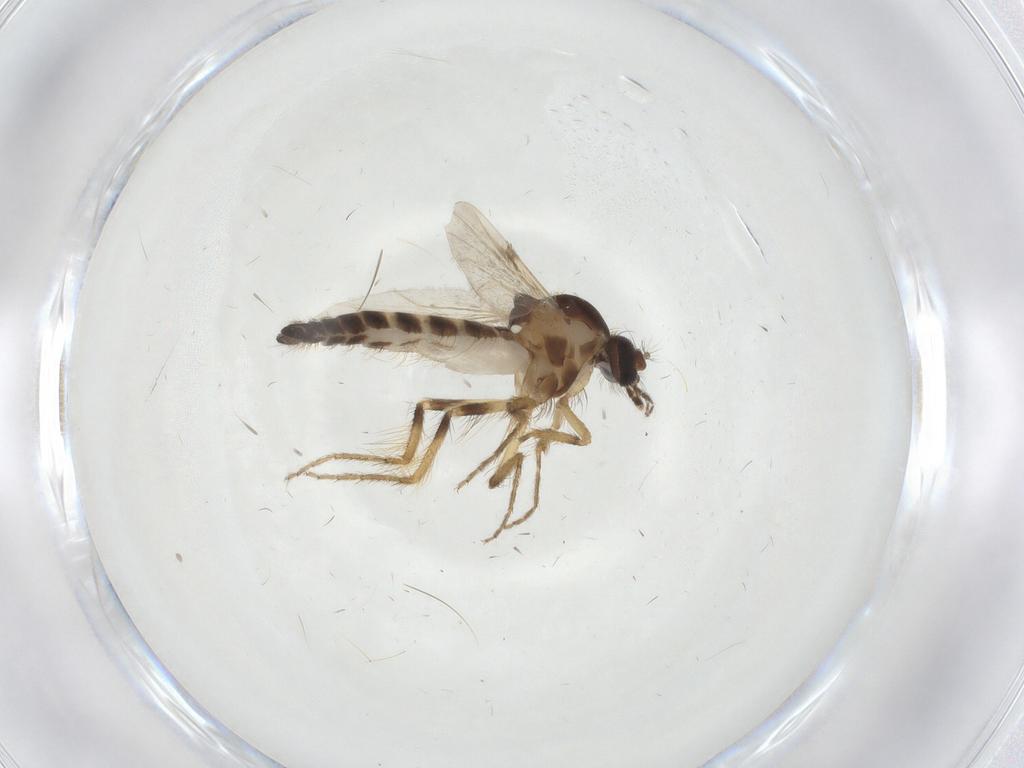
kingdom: Animalia
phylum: Arthropoda
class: Insecta
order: Diptera
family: Ceratopogonidae
